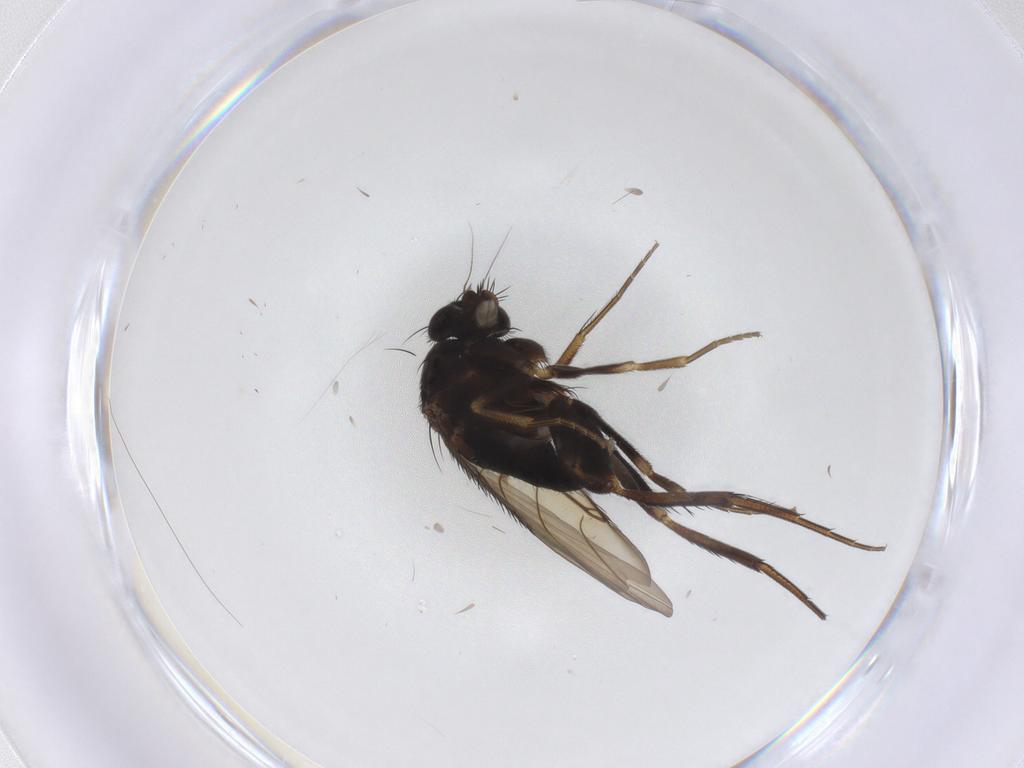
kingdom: Animalia
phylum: Arthropoda
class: Insecta
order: Diptera
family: Phoridae
